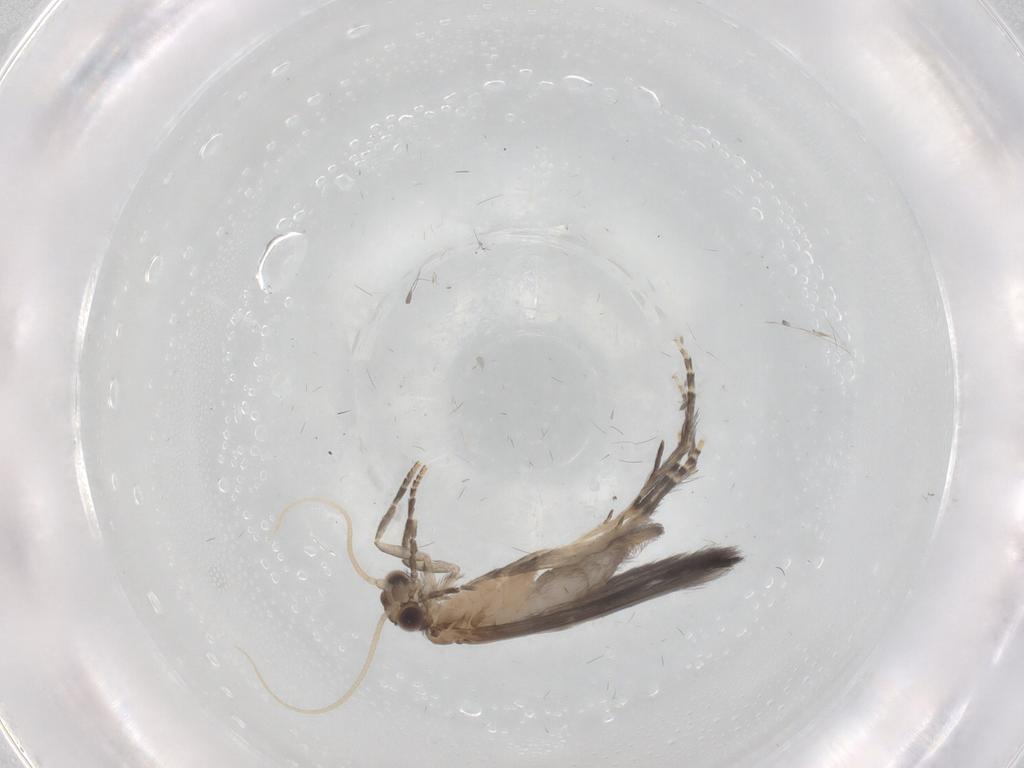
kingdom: Animalia
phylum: Arthropoda
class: Insecta
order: Trichoptera
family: Hydroptilidae
